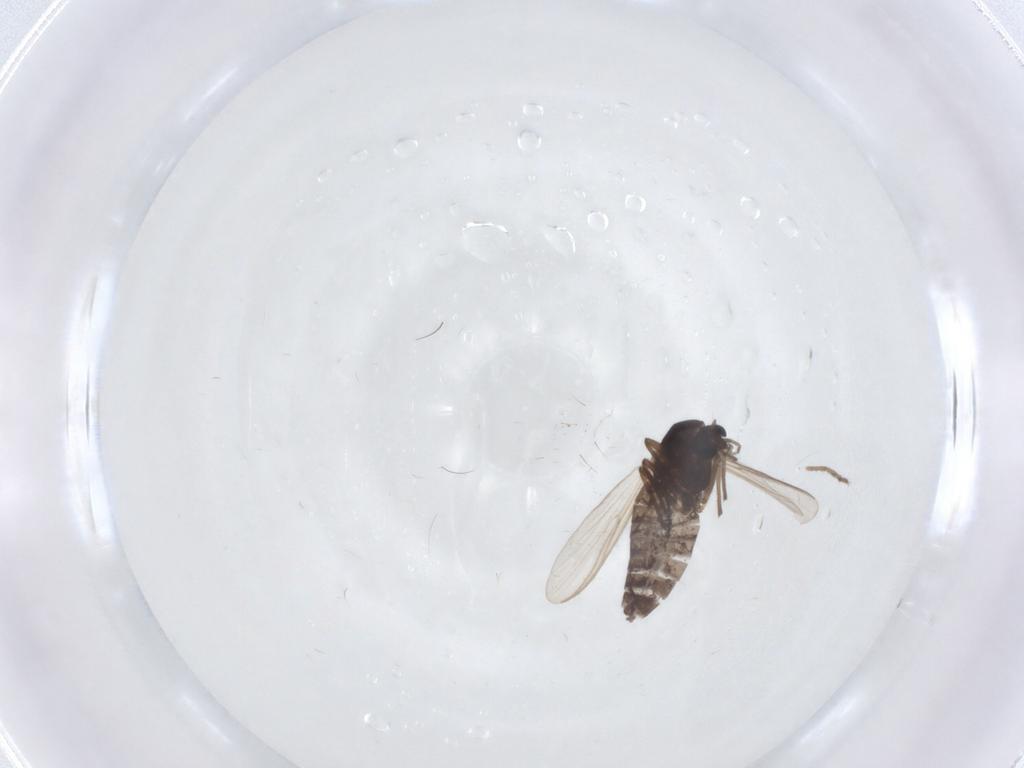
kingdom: Animalia
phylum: Arthropoda
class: Insecta
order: Diptera
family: Ceratopogonidae
